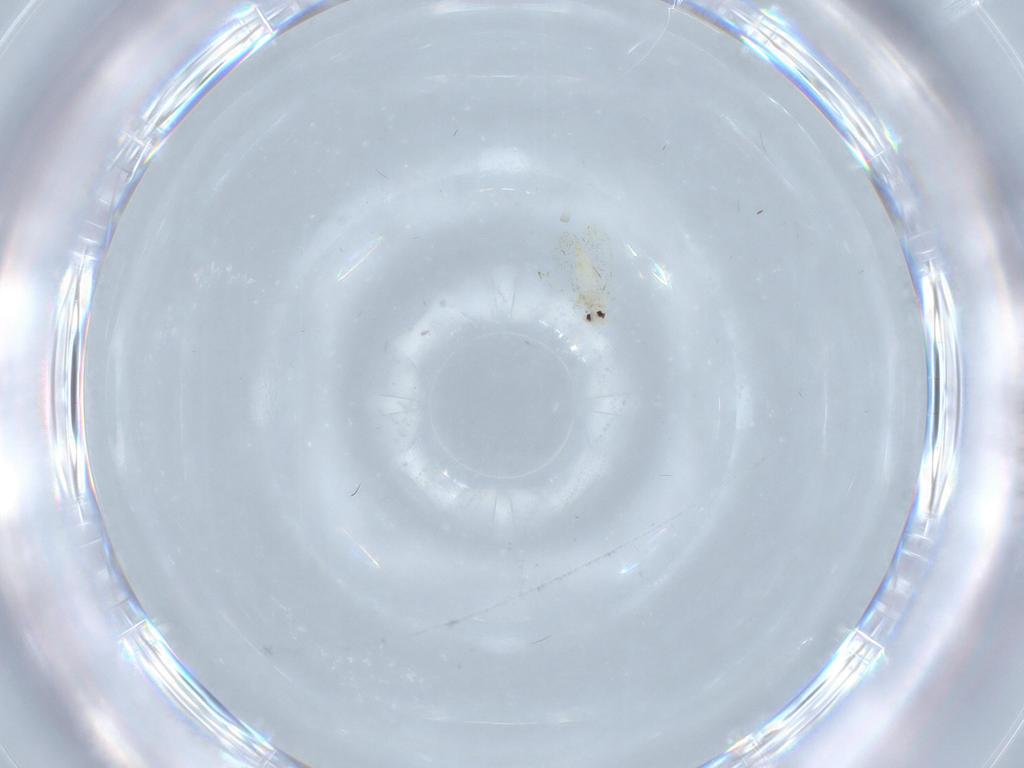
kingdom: Animalia
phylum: Arthropoda
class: Insecta
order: Hemiptera
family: Aleyrodidae
